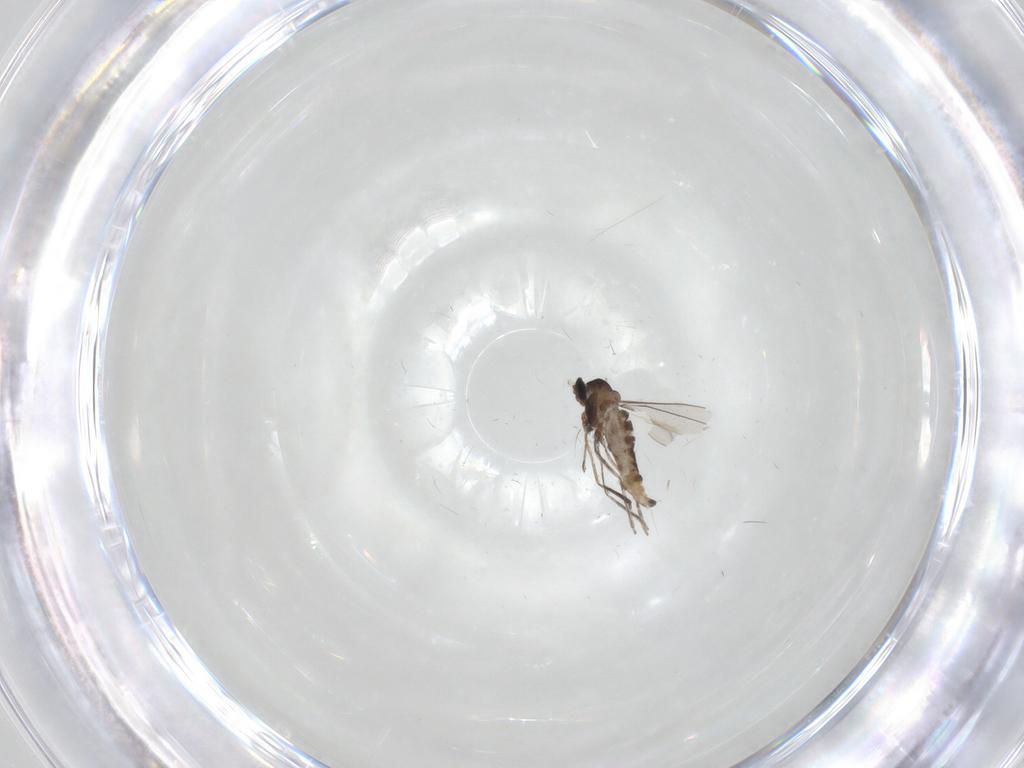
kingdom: Animalia
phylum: Arthropoda
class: Insecta
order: Diptera
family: Cecidomyiidae
